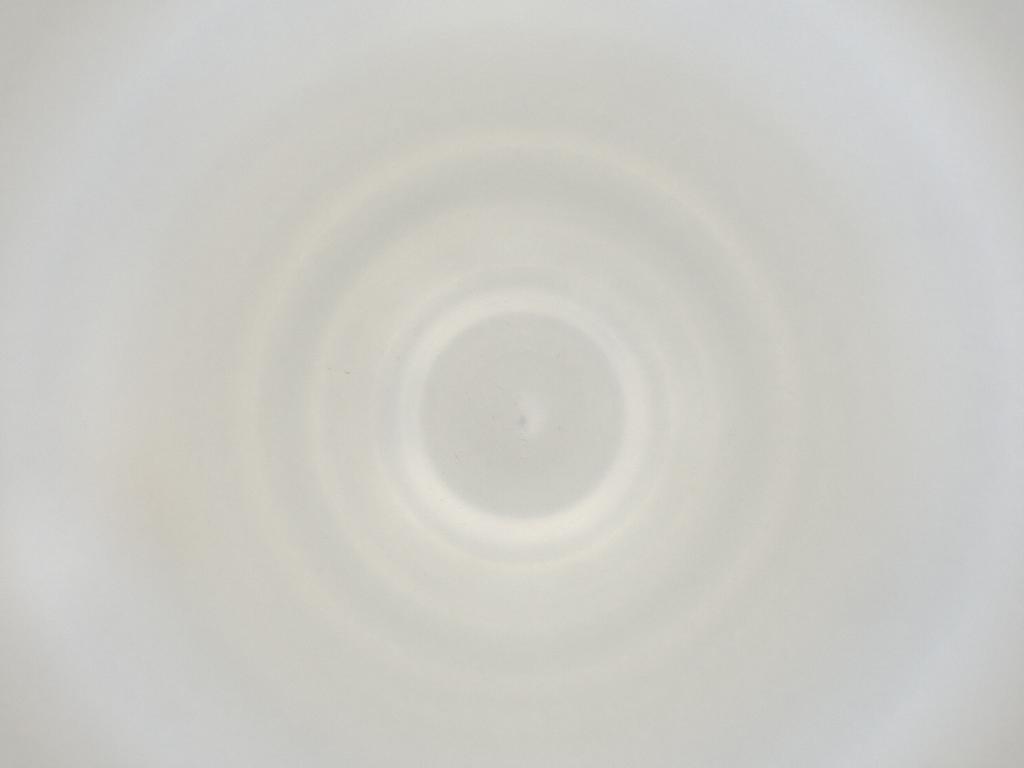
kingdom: Animalia
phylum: Arthropoda
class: Insecta
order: Diptera
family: Cecidomyiidae
